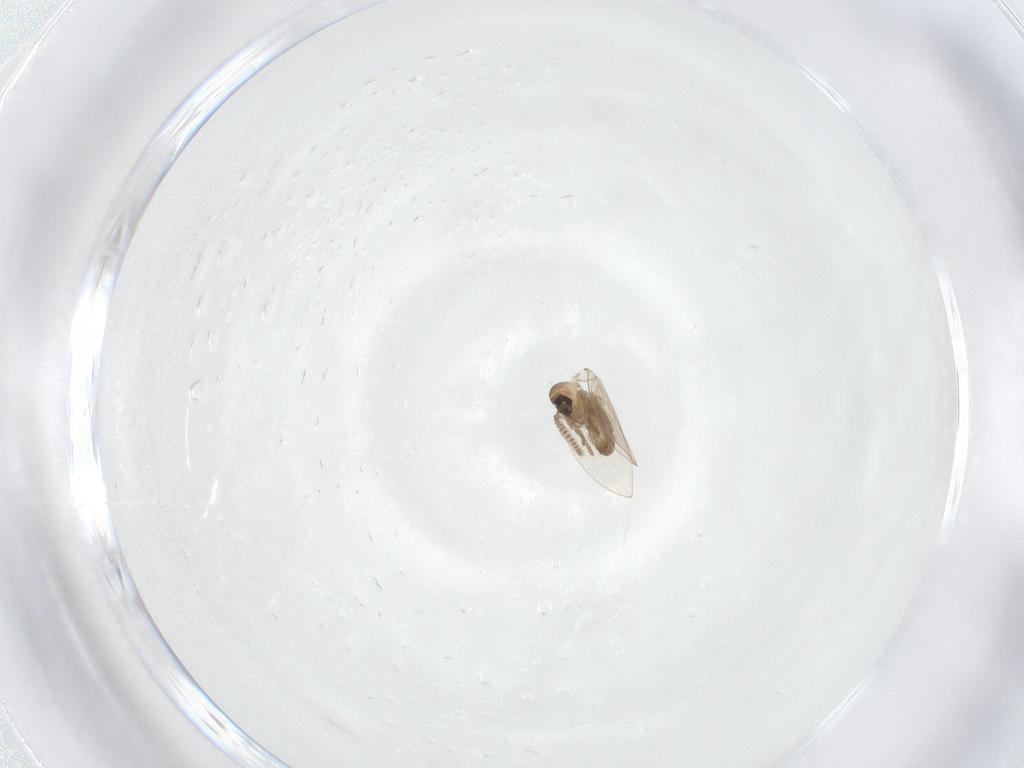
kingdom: Animalia
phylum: Arthropoda
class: Insecta
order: Diptera
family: Psychodidae
